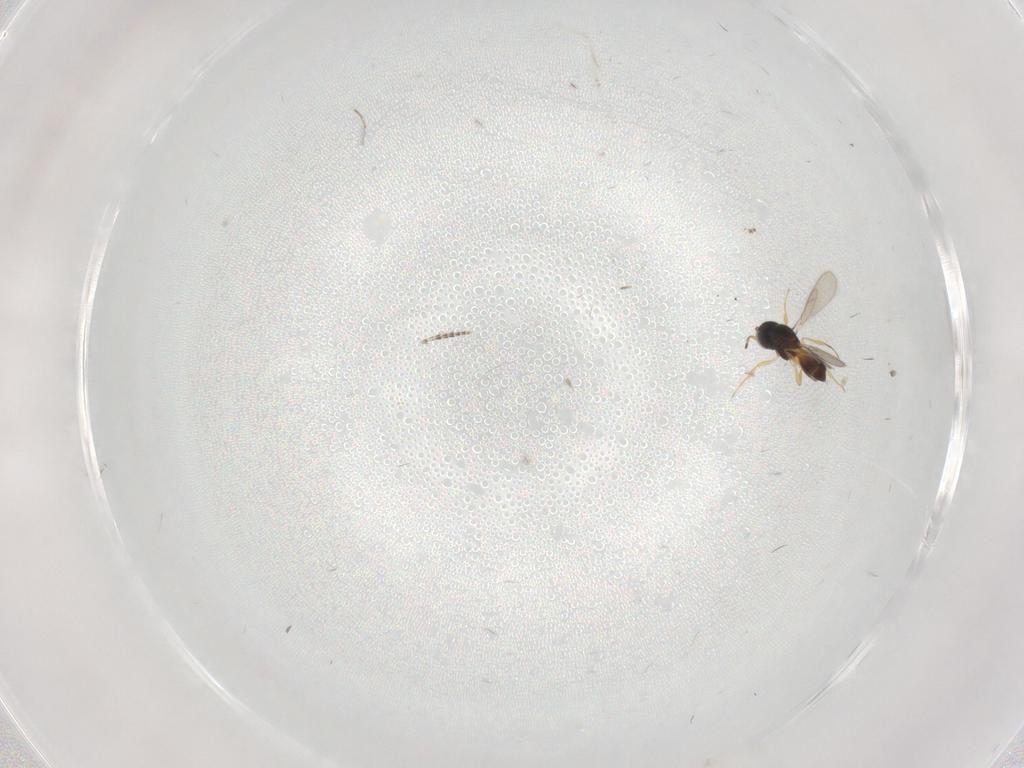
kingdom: Animalia
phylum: Arthropoda
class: Insecta
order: Hymenoptera
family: Scelionidae
